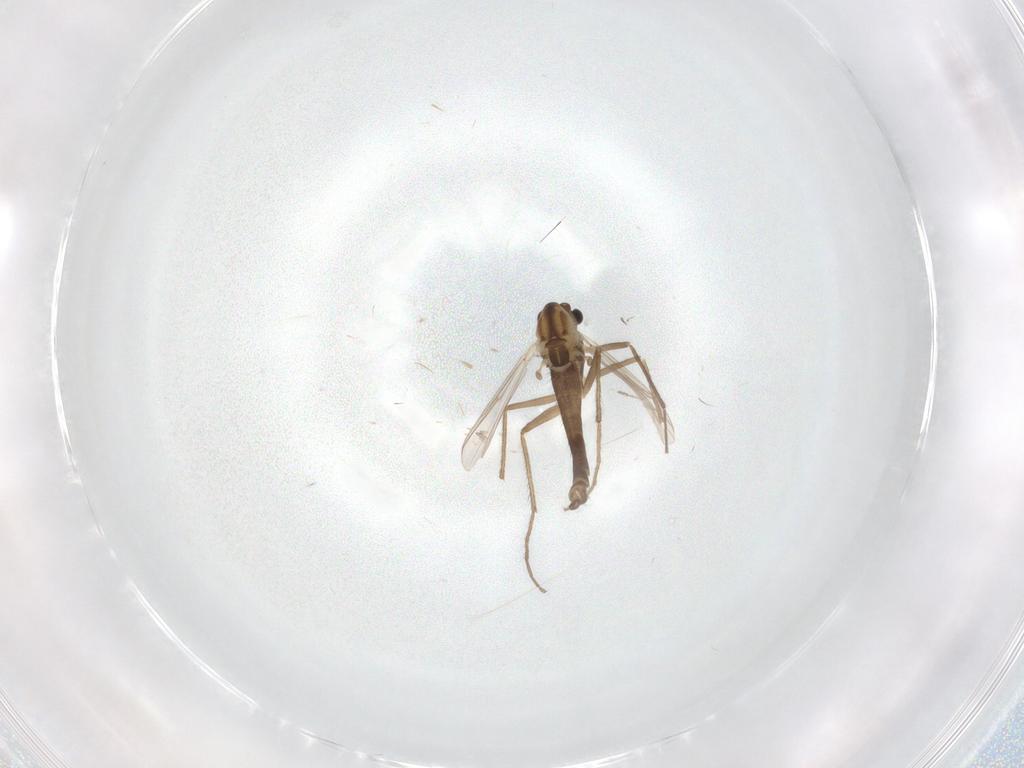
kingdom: Animalia
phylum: Arthropoda
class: Insecta
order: Diptera
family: Chironomidae
